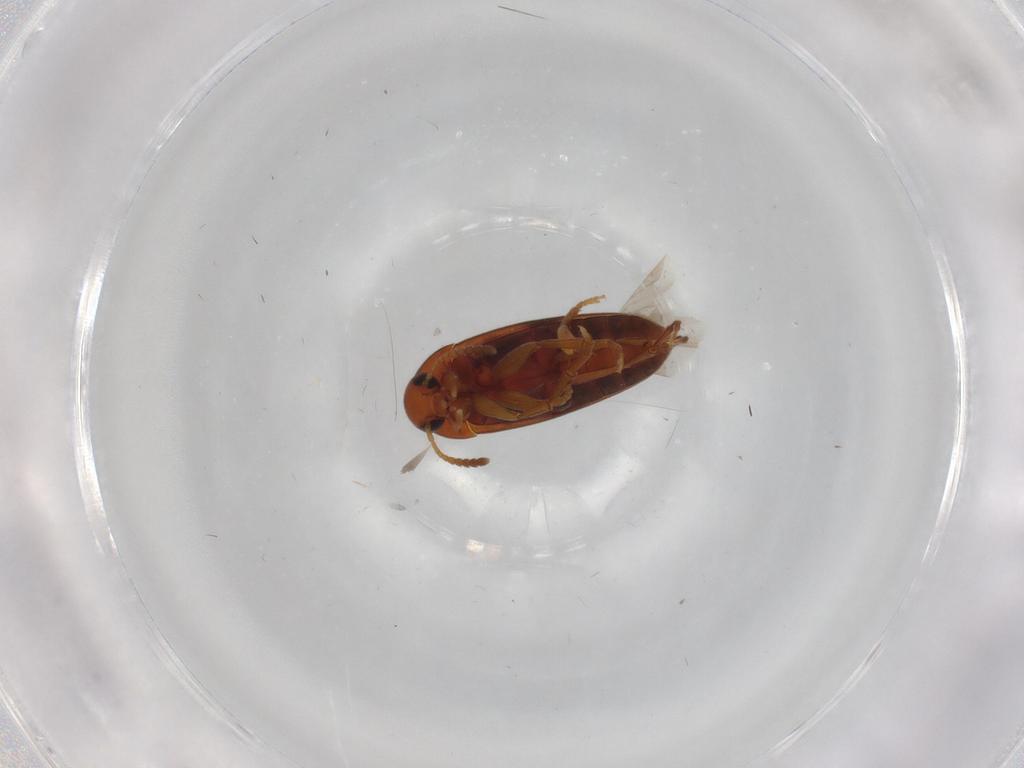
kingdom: Animalia
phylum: Arthropoda
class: Insecta
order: Coleoptera
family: Scraptiidae
